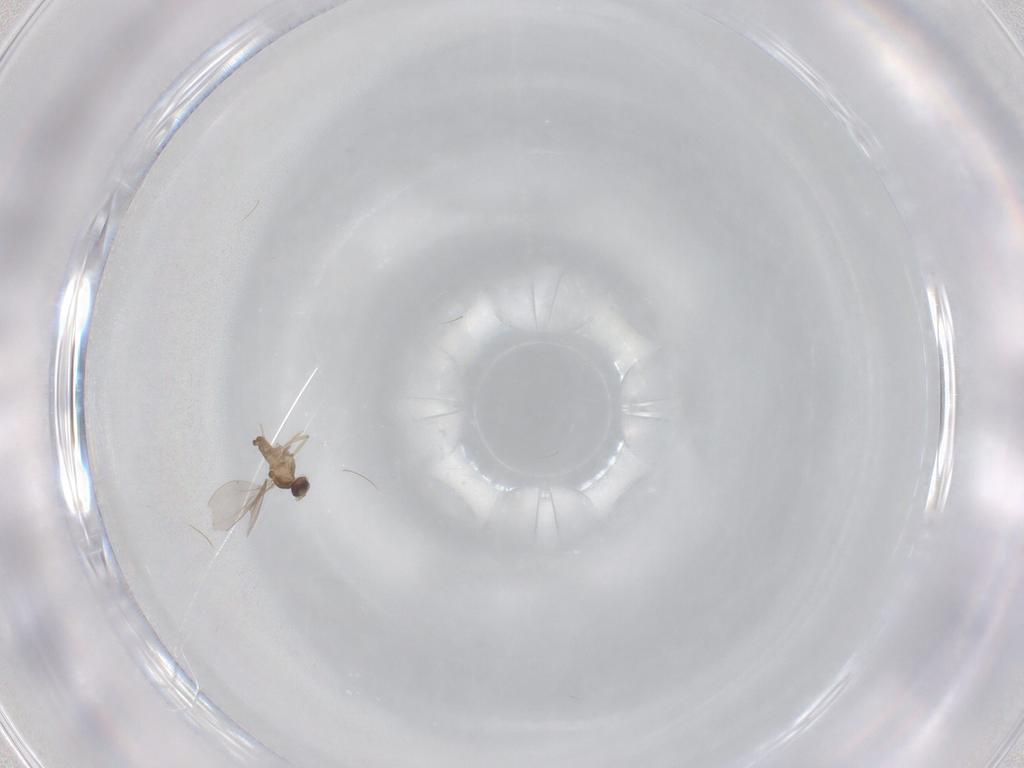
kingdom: Animalia
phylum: Arthropoda
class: Insecta
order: Diptera
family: Cecidomyiidae
